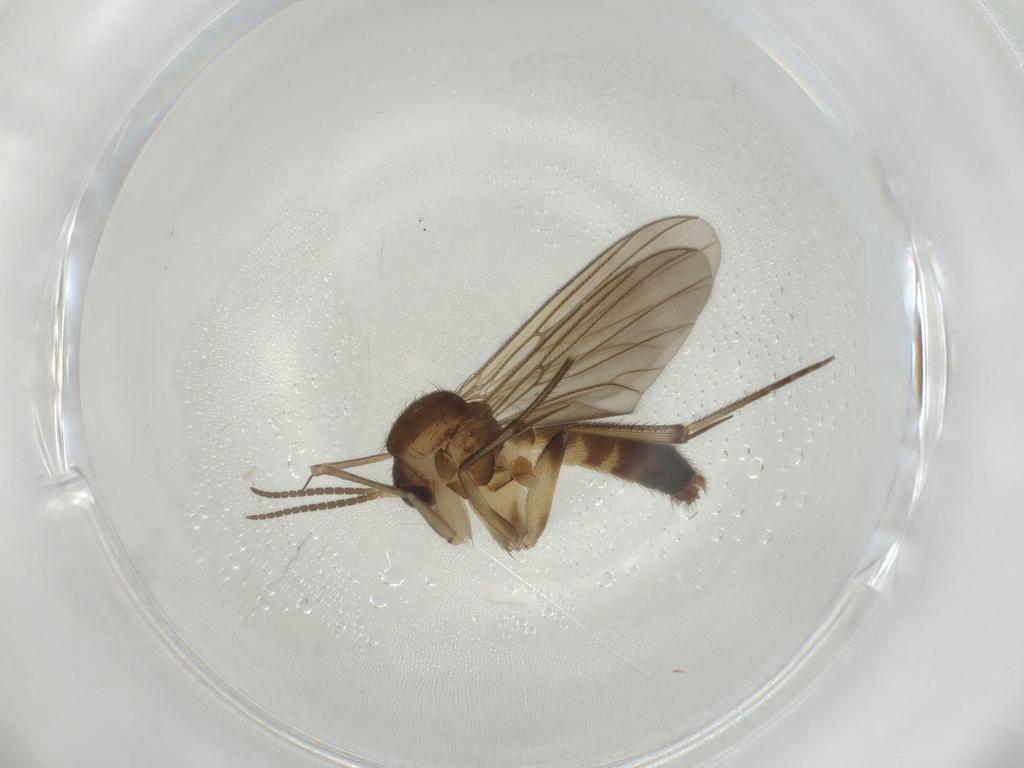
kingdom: Animalia
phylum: Arthropoda
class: Insecta
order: Diptera
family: Mycetophilidae
